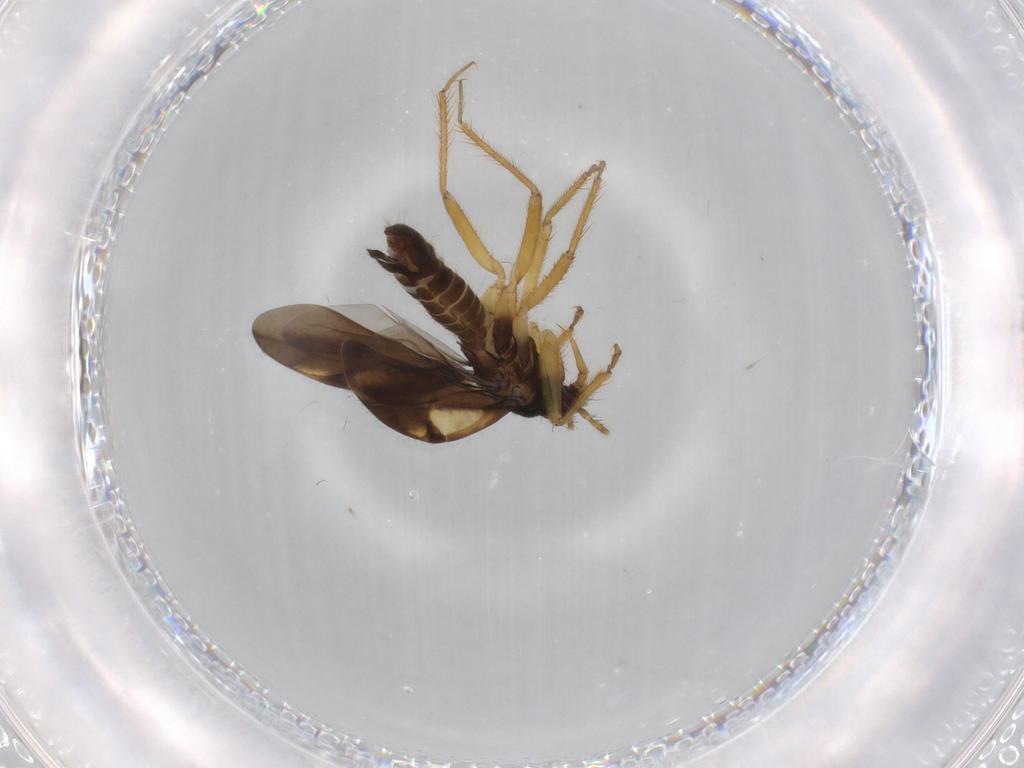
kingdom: Animalia
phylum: Arthropoda
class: Insecta
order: Hemiptera
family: Ceratocombidae
